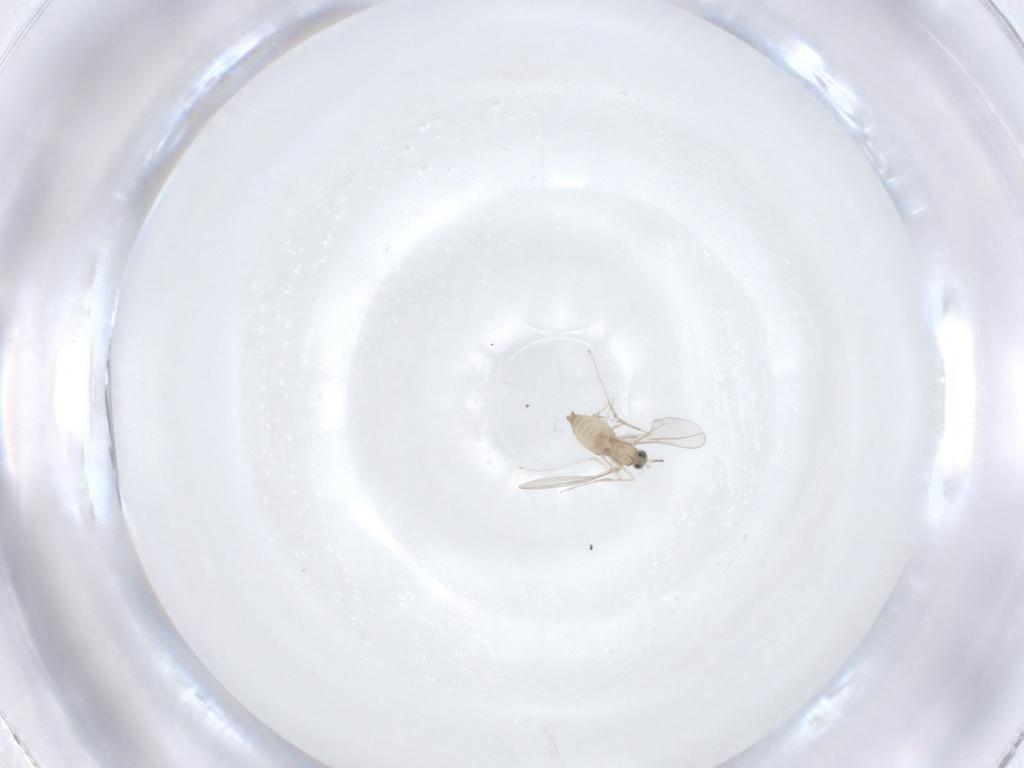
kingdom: Animalia
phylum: Arthropoda
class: Insecta
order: Diptera
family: Cecidomyiidae
